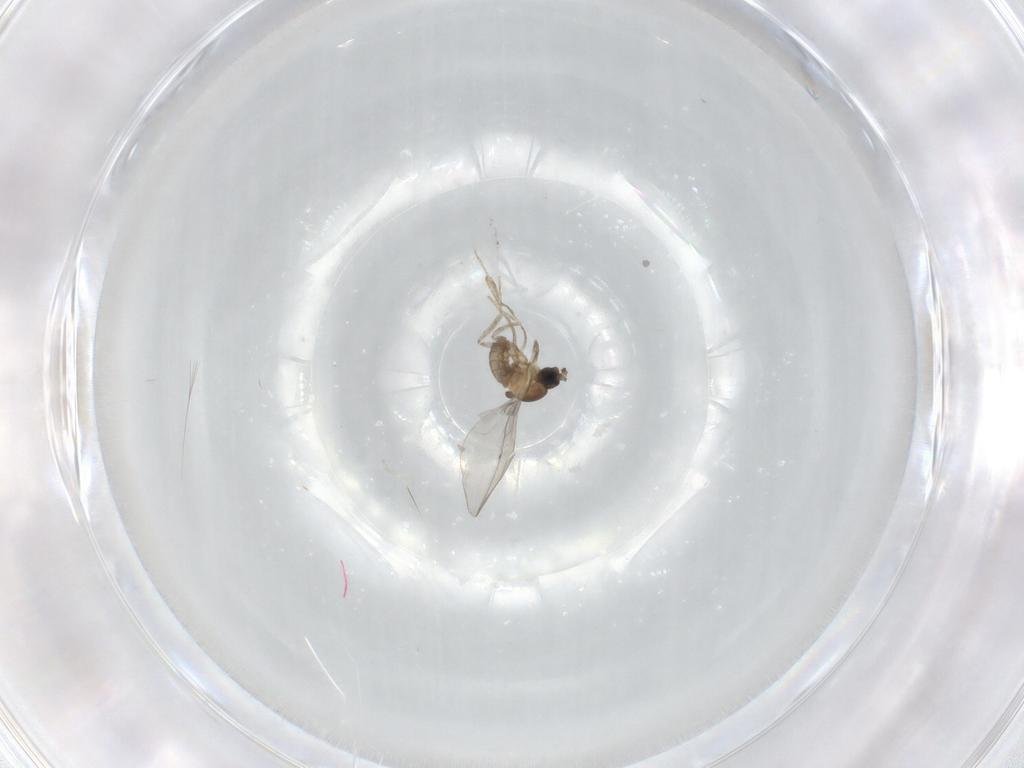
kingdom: Animalia
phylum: Arthropoda
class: Insecta
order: Diptera
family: Cecidomyiidae
